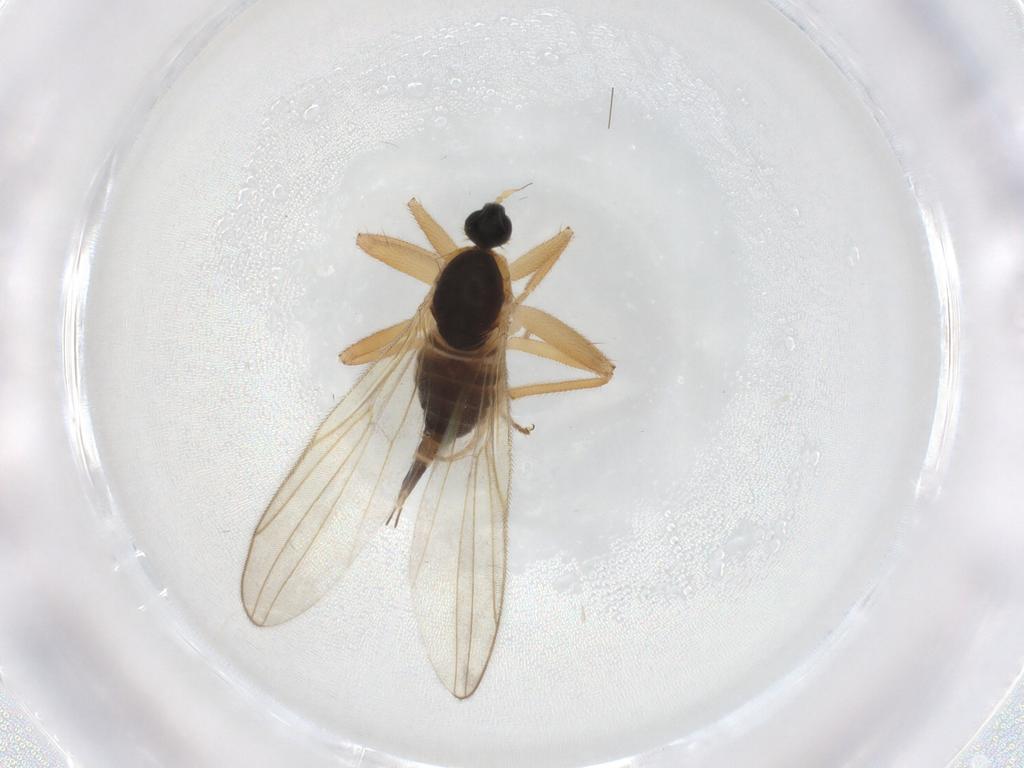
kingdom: Animalia
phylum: Arthropoda
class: Insecta
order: Diptera
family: Hybotidae
